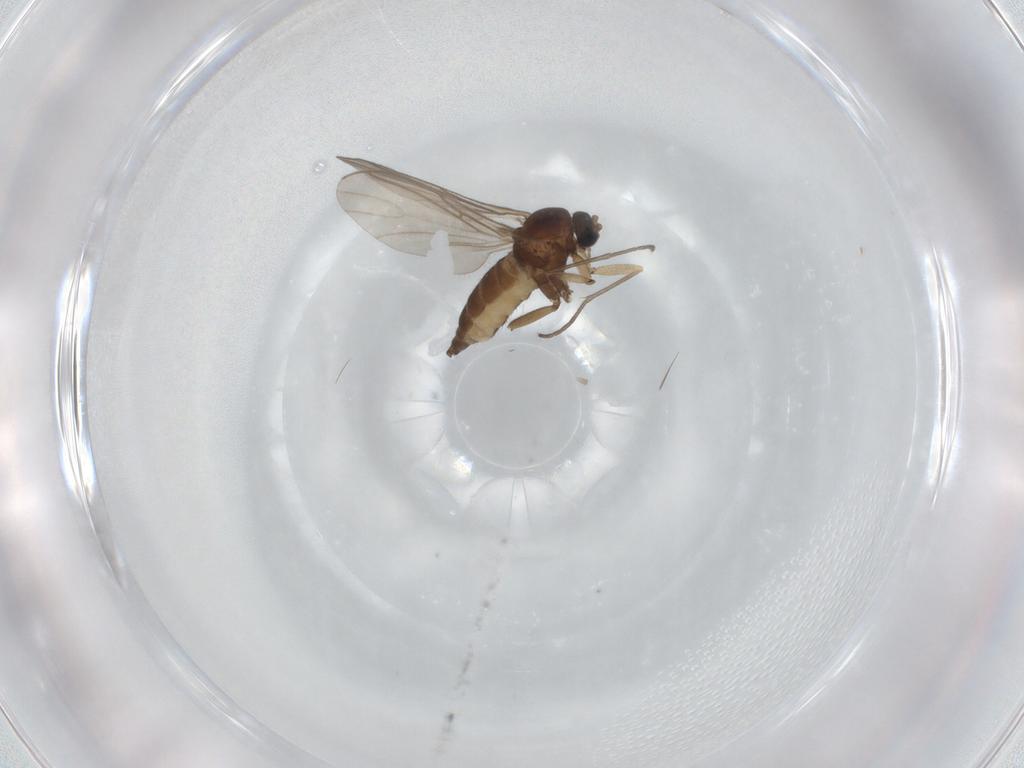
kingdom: Animalia
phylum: Arthropoda
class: Insecta
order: Diptera
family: Sciaridae
